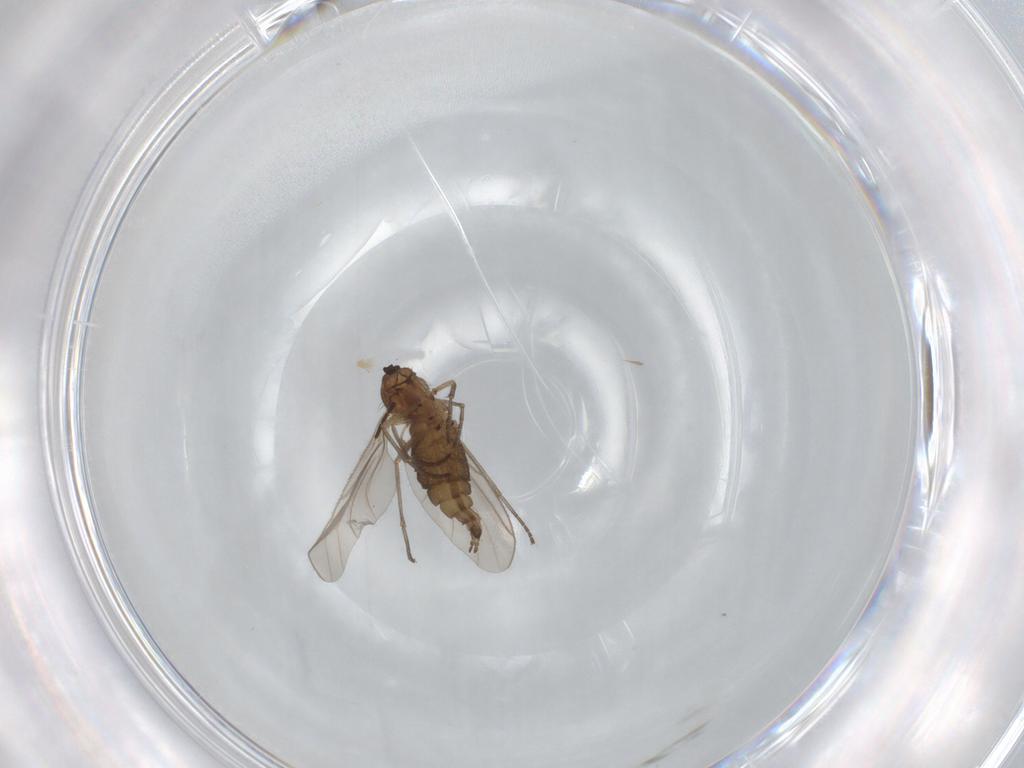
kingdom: Animalia
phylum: Arthropoda
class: Insecta
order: Diptera
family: Sciaridae
